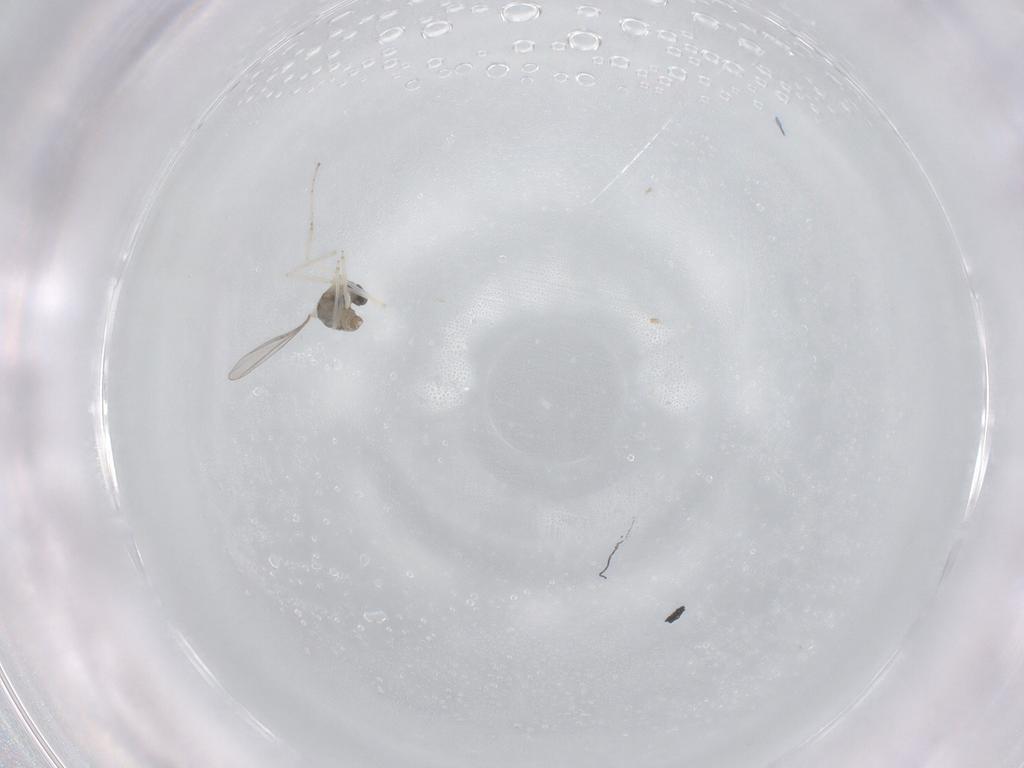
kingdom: Animalia
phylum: Arthropoda
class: Insecta
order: Diptera
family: Cecidomyiidae
